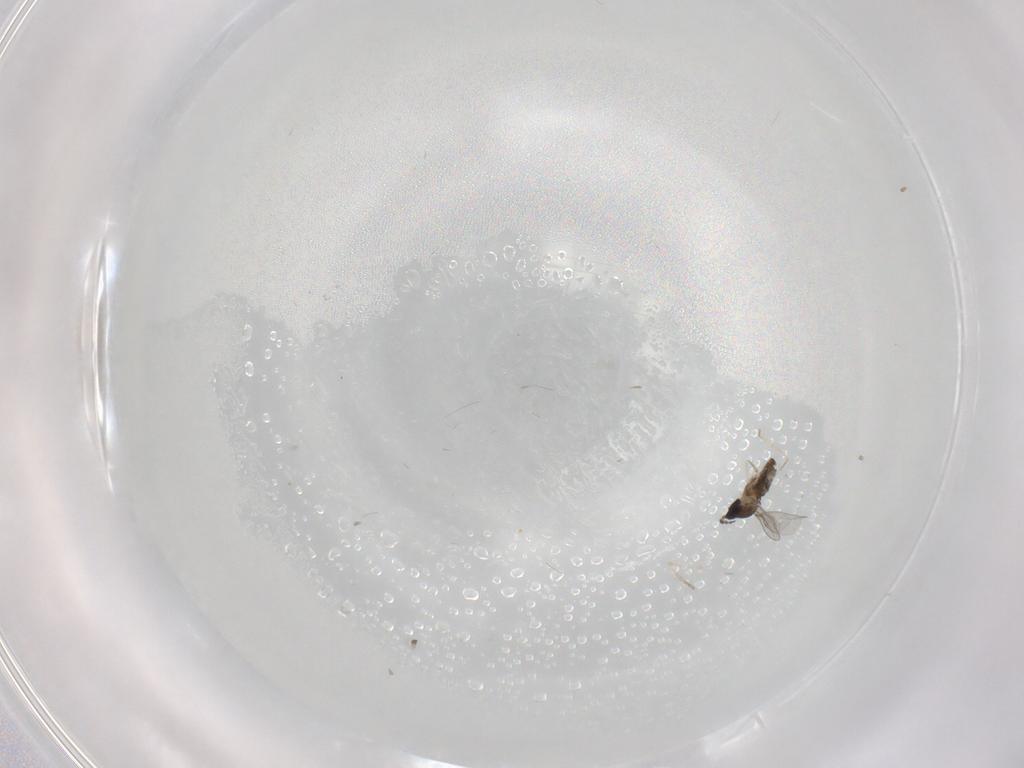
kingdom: Animalia
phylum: Arthropoda
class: Insecta
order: Diptera
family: Cecidomyiidae
